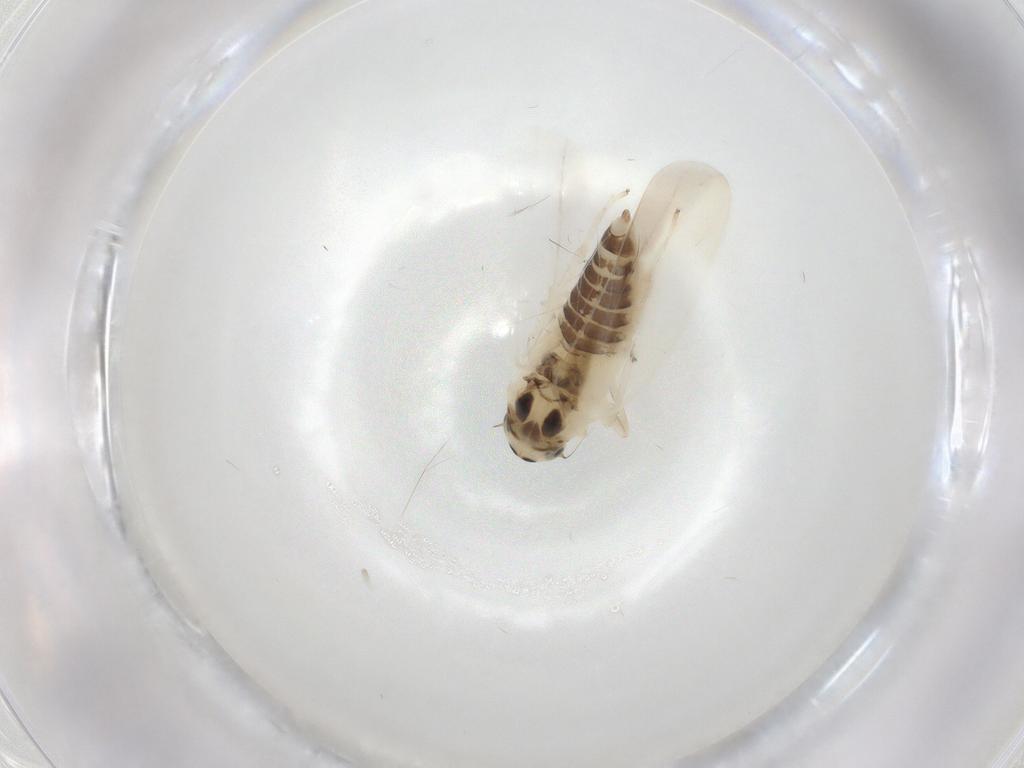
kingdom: Animalia
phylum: Arthropoda
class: Insecta
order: Hemiptera
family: Cicadellidae
